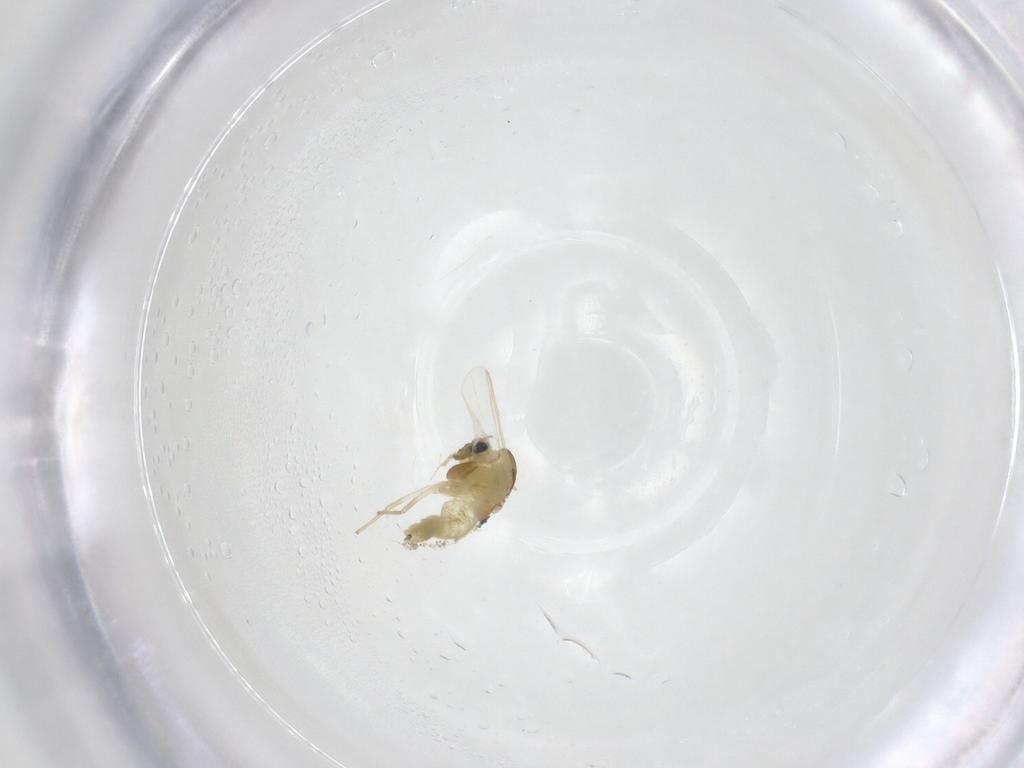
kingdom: Animalia
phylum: Arthropoda
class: Insecta
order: Diptera
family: Chironomidae
